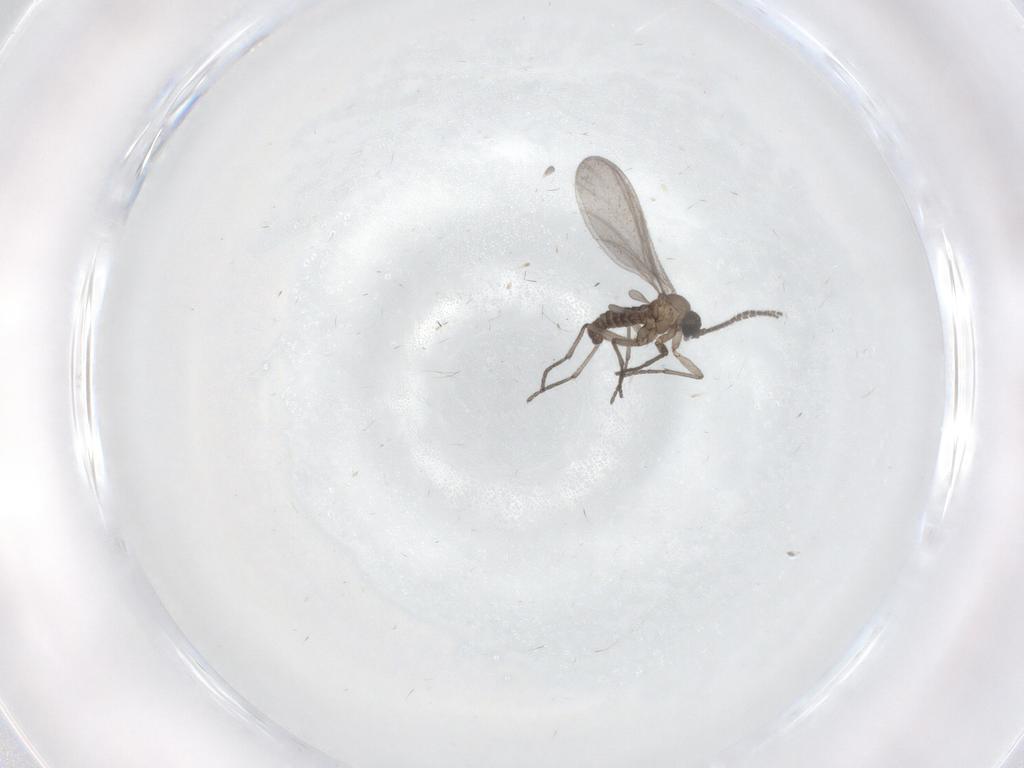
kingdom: Animalia
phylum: Arthropoda
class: Insecta
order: Diptera
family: Sciaridae
